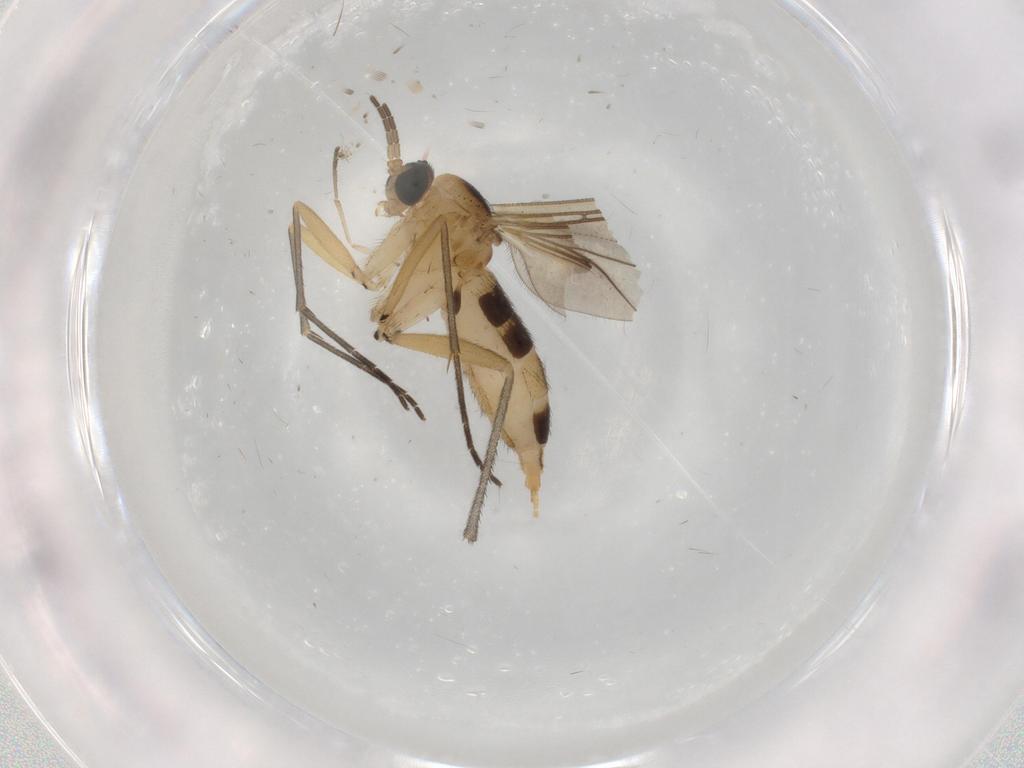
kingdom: Animalia
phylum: Arthropoda
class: Insecta
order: Diptera
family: Sciaridae
